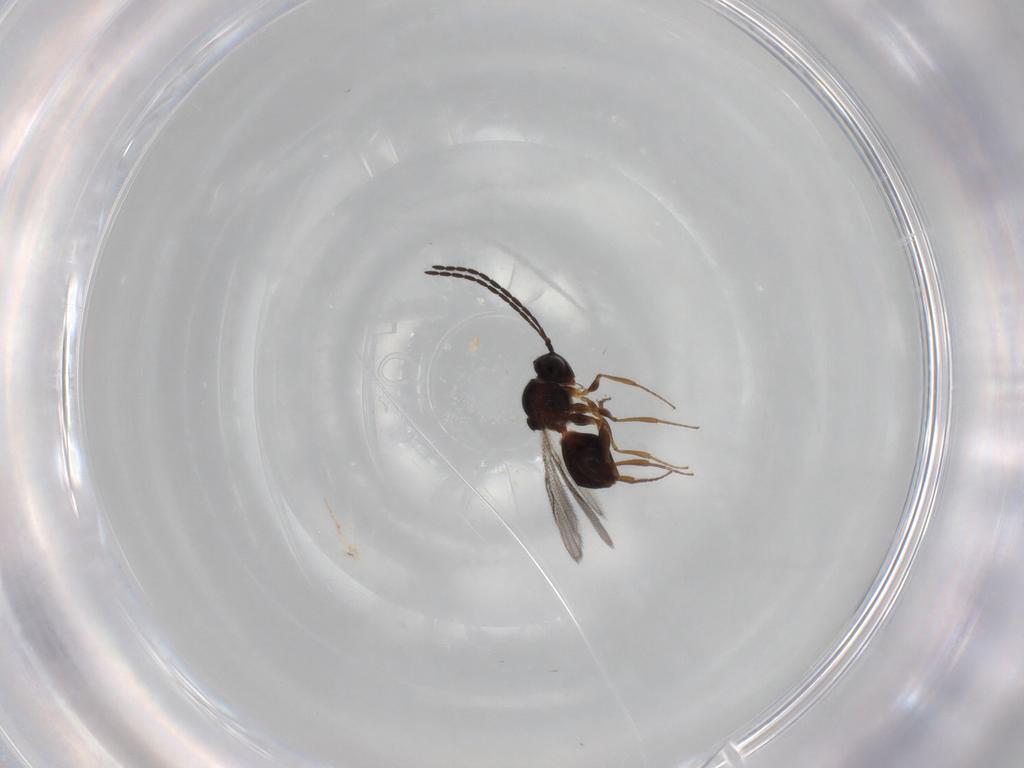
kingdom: Animalia
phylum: Arthropoda
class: Insecta
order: Hymenoptera
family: Figitidae
